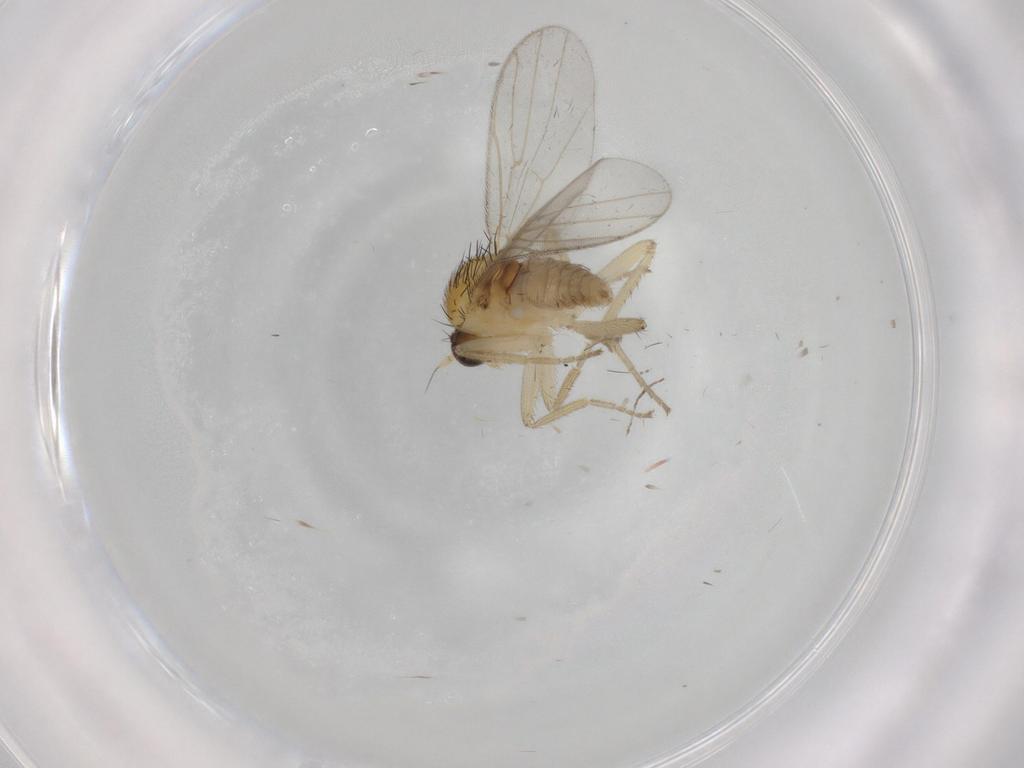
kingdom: Animalia
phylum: Arthropoda
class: Insecta
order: Diptera
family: Hybotidae
